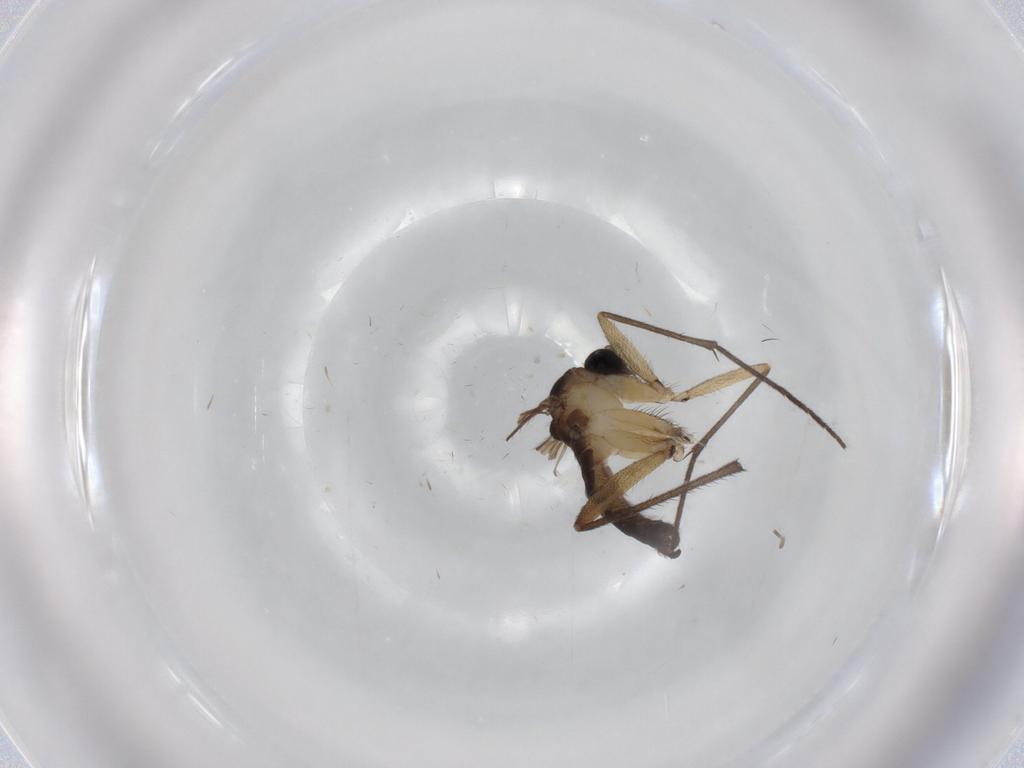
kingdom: Animalia
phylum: Arthropoda
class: Insecta
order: Diptera
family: Sciaridae
